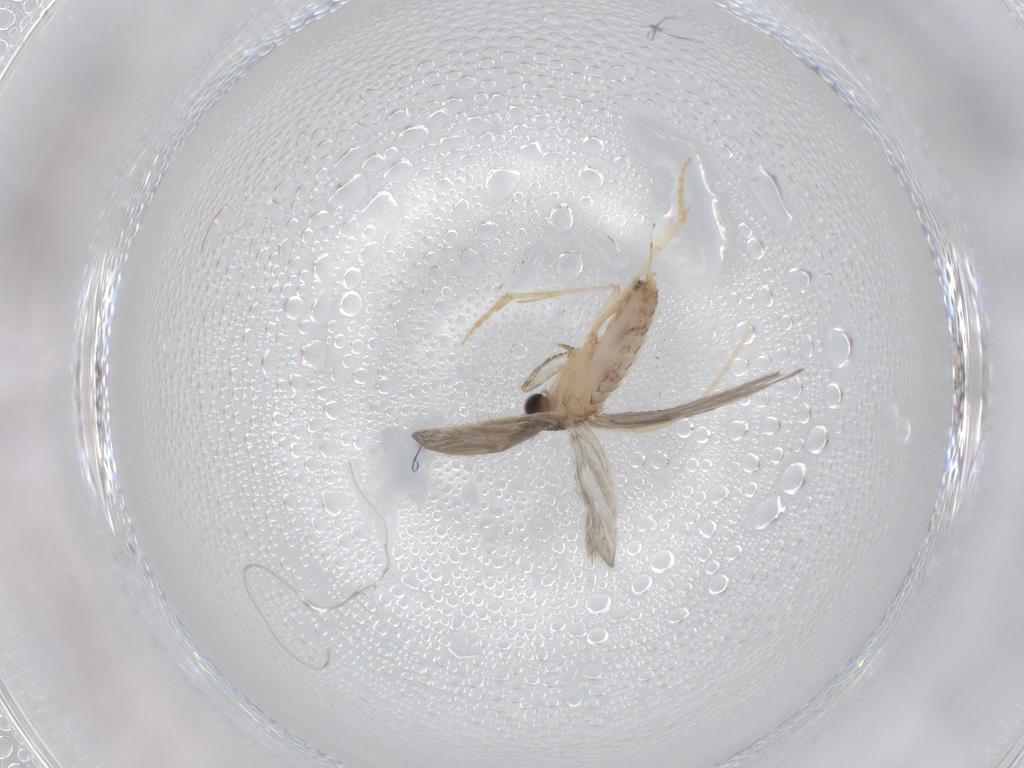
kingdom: Animalia
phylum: Arthropoda
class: Insecta
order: Trichoptera
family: Hydroptilidae
